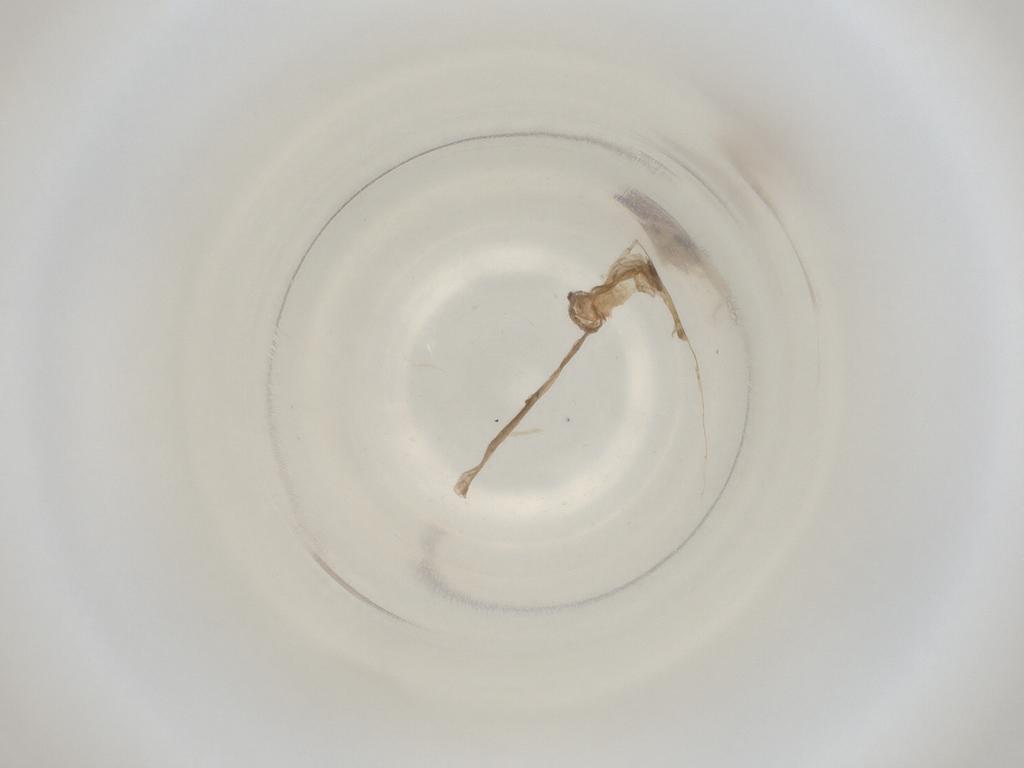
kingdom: Animalia
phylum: Arthropoda
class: Insecta
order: Diptera
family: Cecidomyiidae
